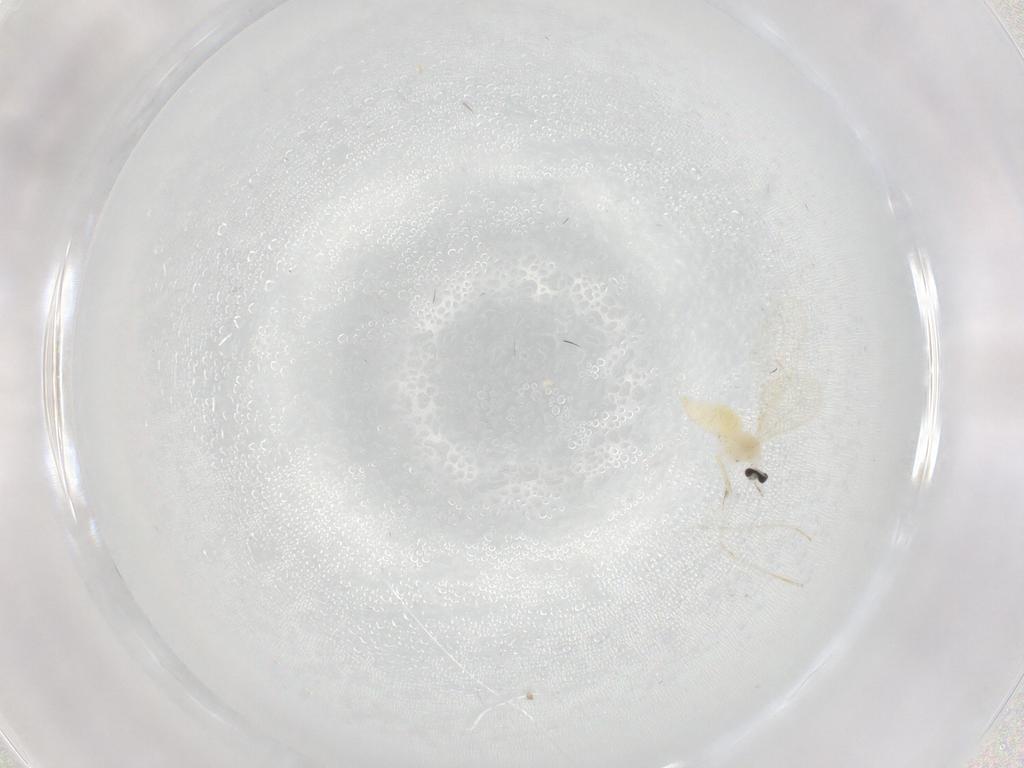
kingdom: Animalia
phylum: Arthropoda
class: Insecta
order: Diptera
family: Cecidomyiidae
